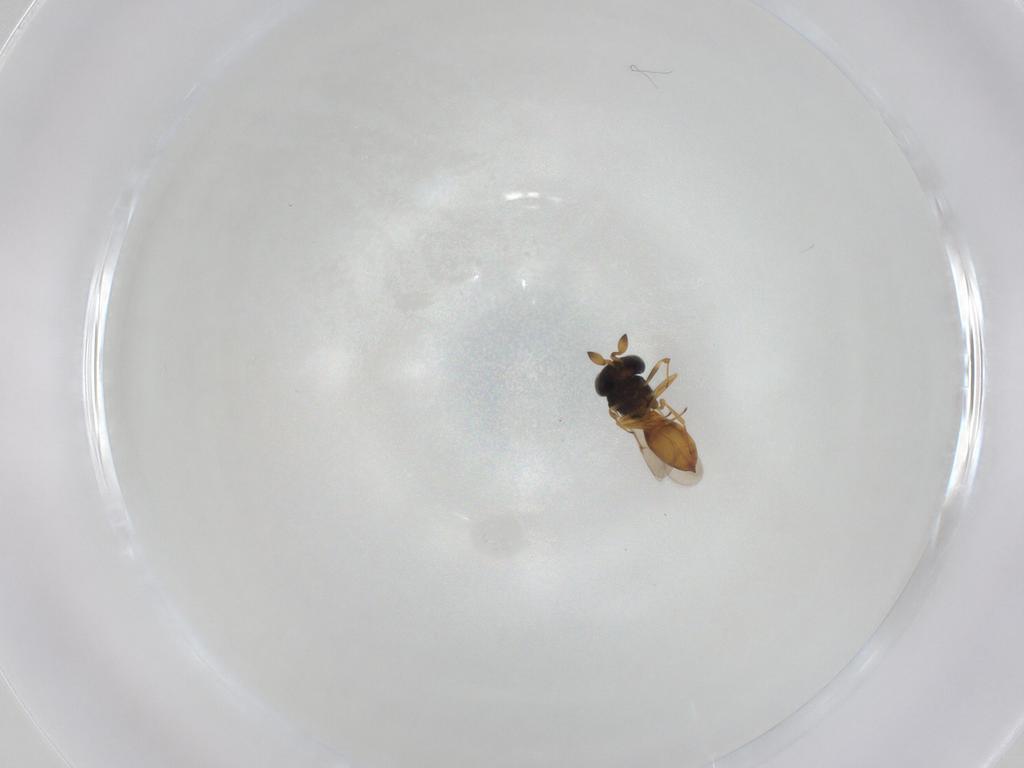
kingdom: Animalia
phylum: Arthropoda
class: Insecta
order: Hymenoptera
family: Scelionidae
